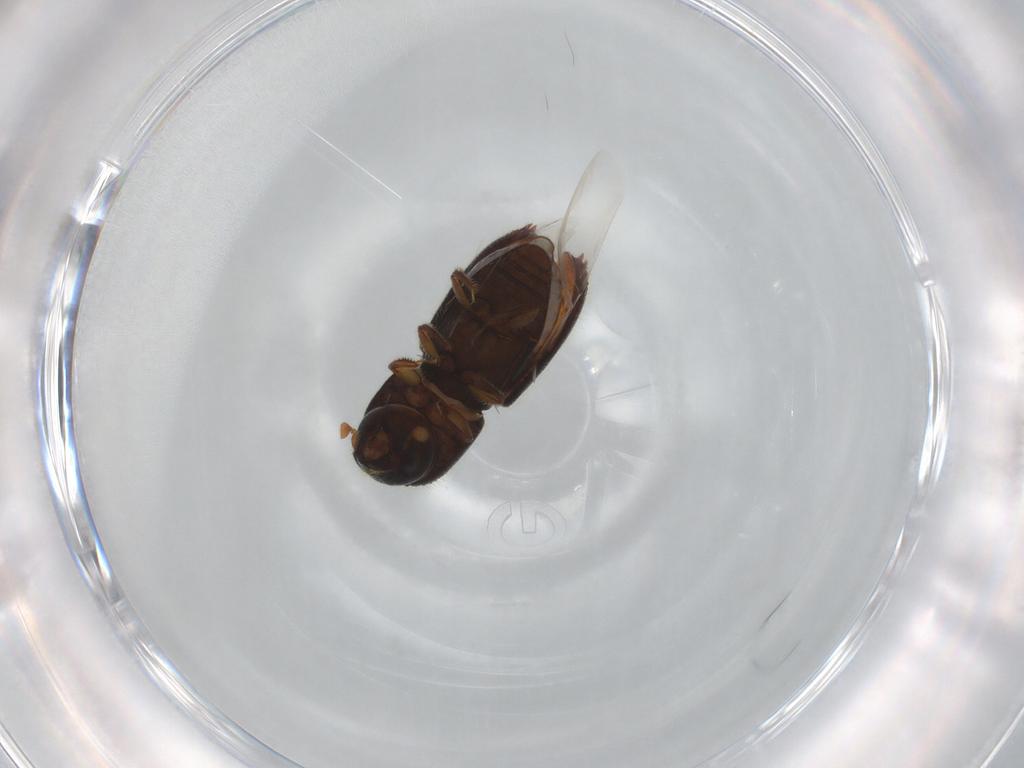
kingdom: Animalia
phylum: Arthropoda
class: Insecta
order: Coleoptera
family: Curculionidae
